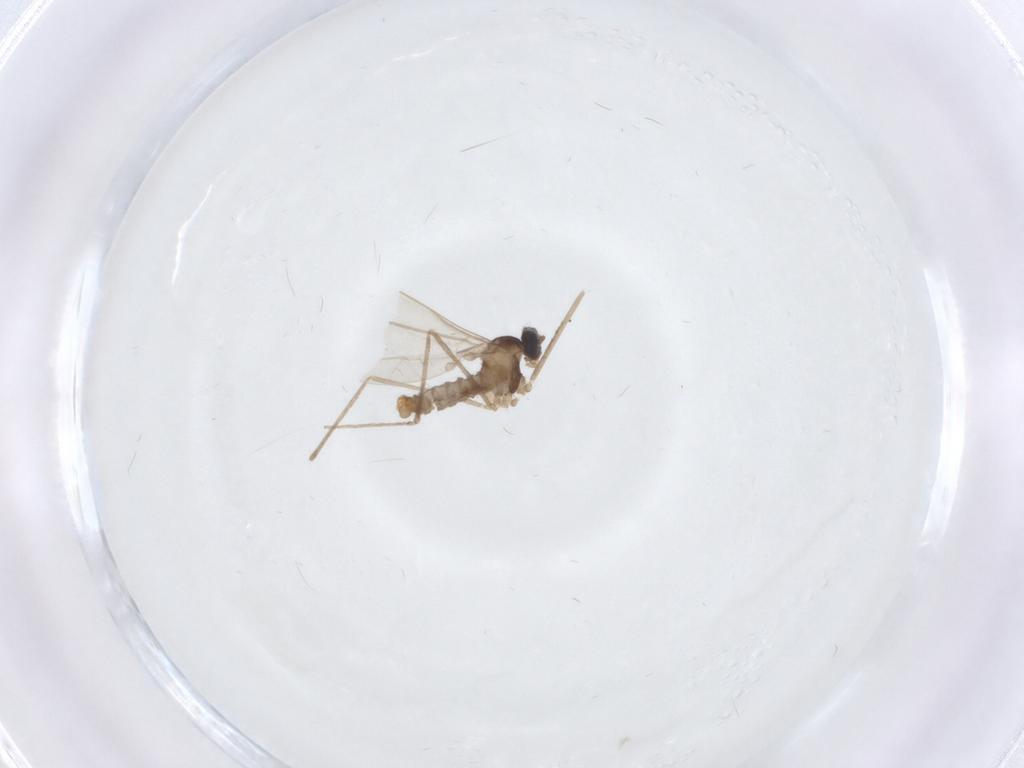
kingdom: Animalia
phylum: Arthropoda
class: Insecta
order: Diptera
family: Cecidomyiidae
